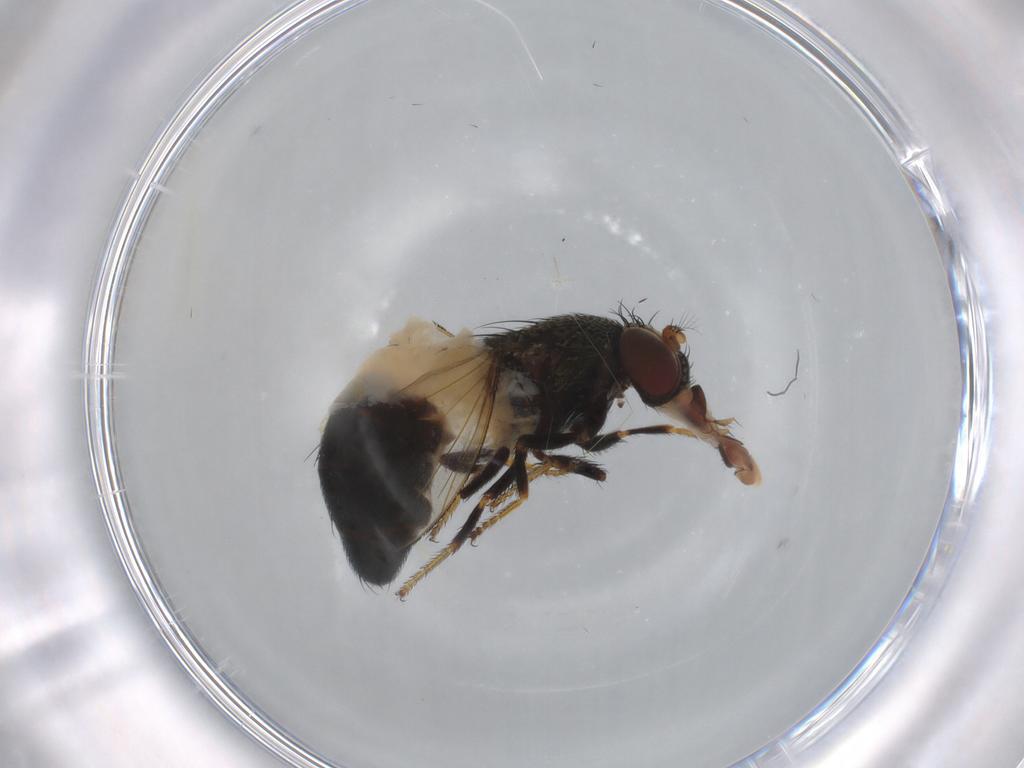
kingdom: Animalia
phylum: Arthropoda
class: Insecta
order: Diptera
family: Chloropidae
